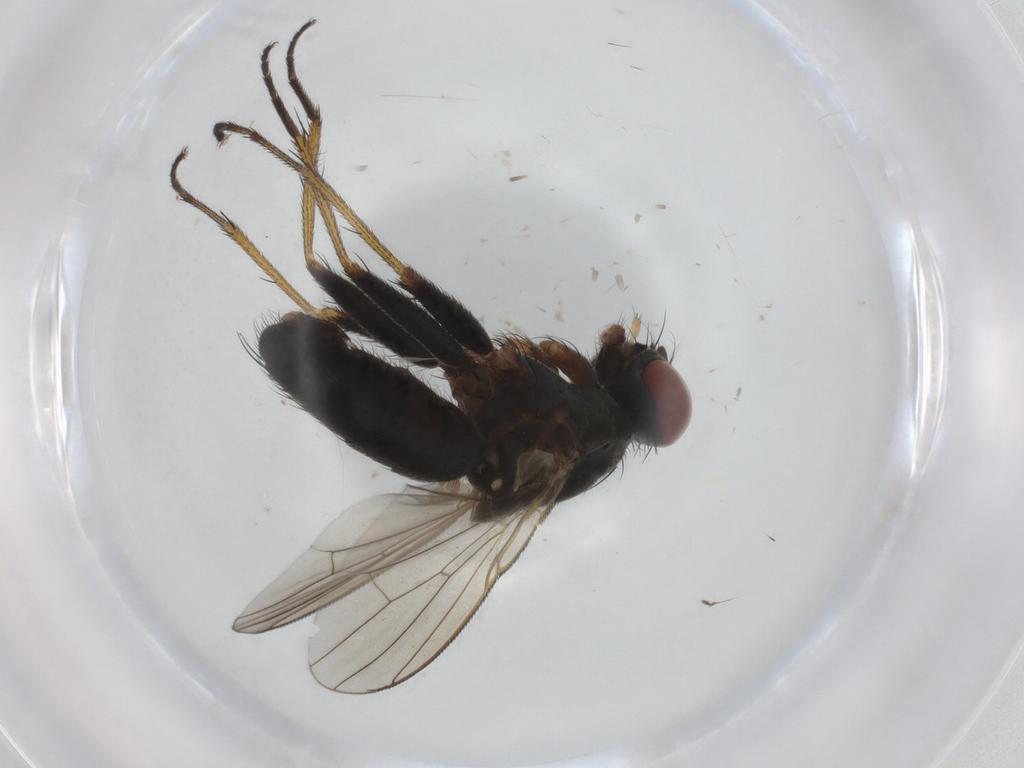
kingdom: Animalia
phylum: Arthropoda
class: Insecta
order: Diptera
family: Muscidae
